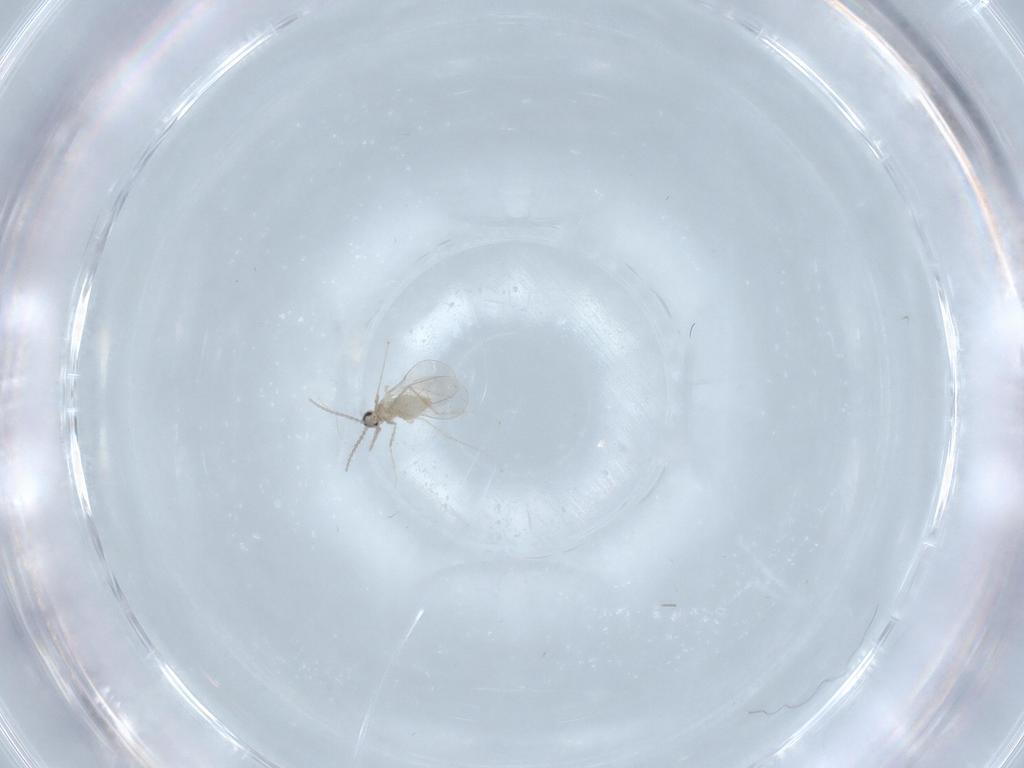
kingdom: Animalia
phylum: Arthropoda
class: Insecta
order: Diptera
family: Cecidomyiidae
